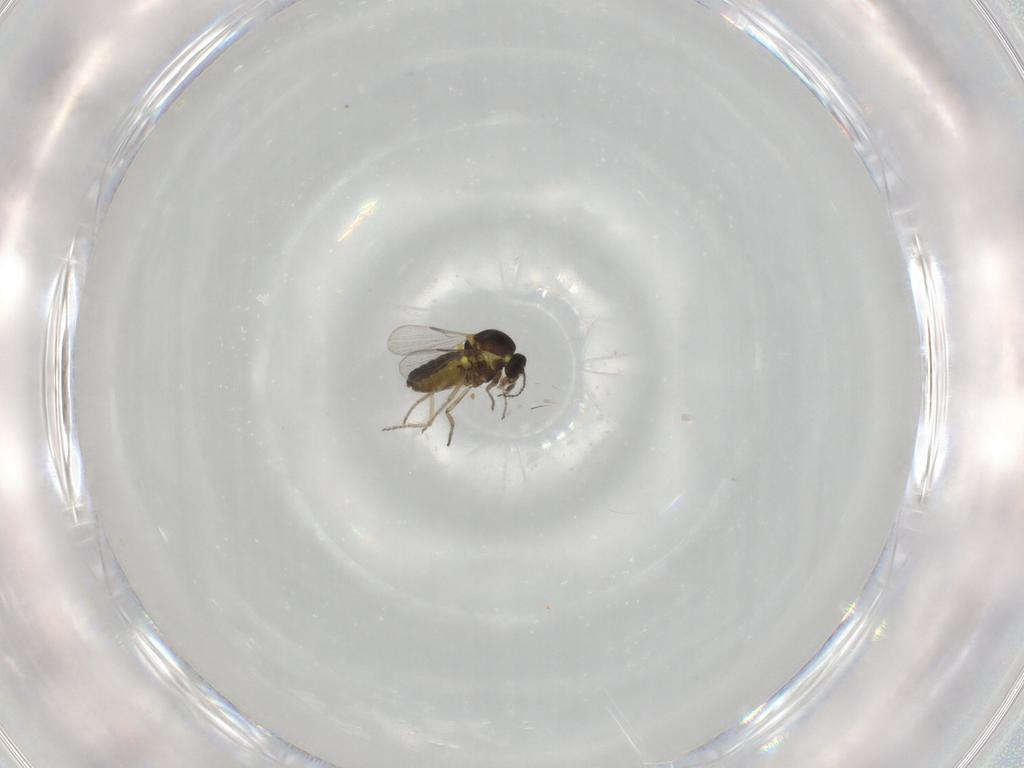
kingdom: Animalia
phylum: Arthropoda
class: Insecta
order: Diptera
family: Ceratopogonidae
